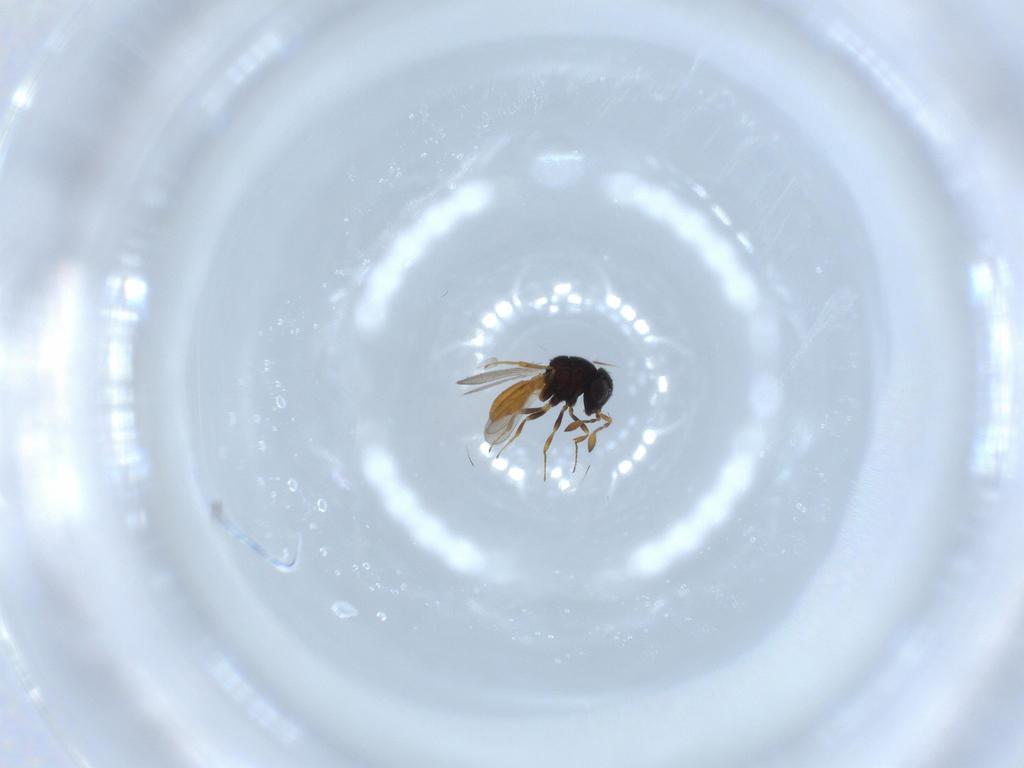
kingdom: Animalia
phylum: Arthropoda
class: Insecta
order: Hymenoptera
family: Scelionidae
